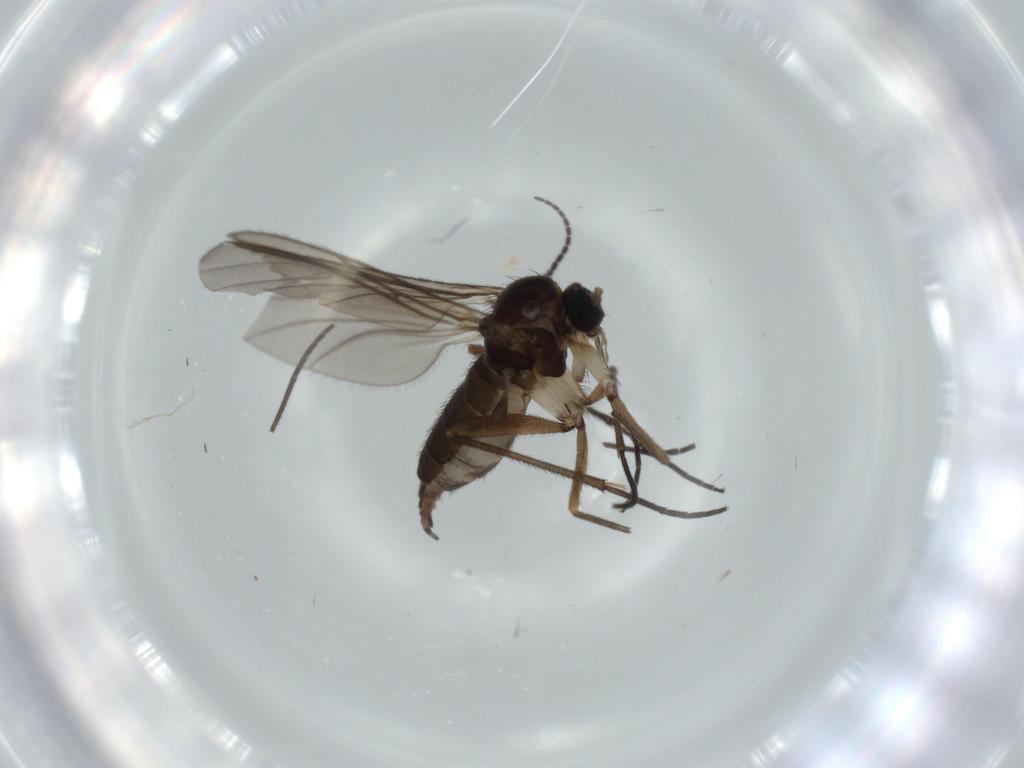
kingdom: Animalia
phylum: Arthropoda
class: Insecta
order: Diptera
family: Sciaridae
